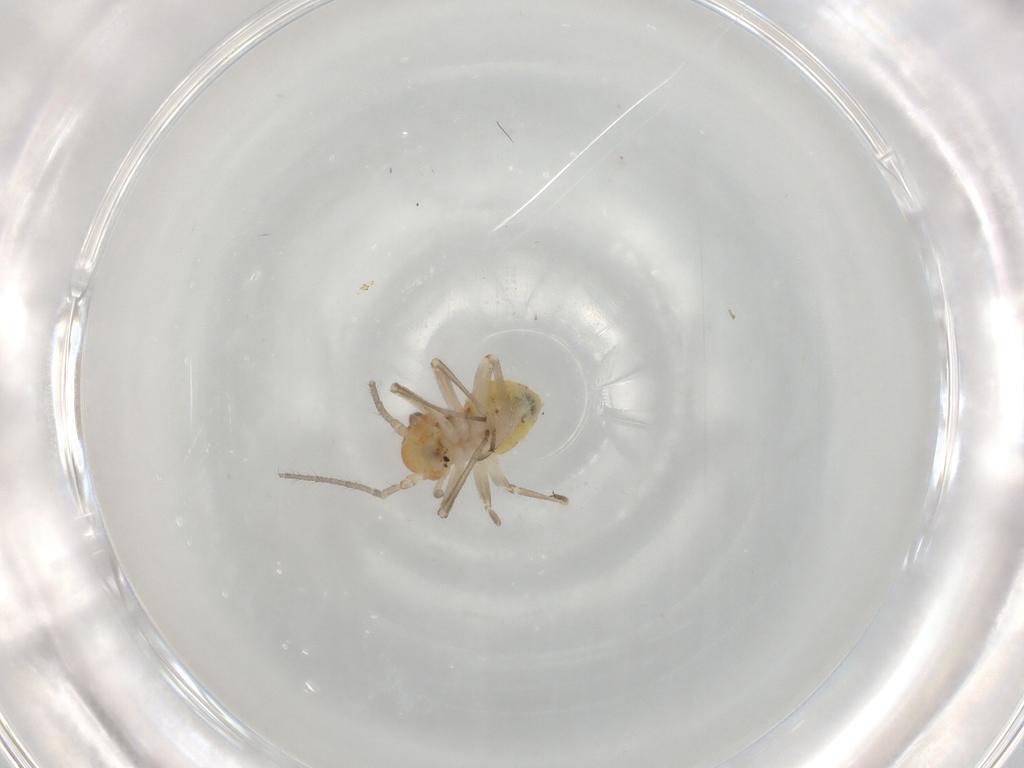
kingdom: Animalia
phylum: Arthropoda
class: Insecta
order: Psocodea
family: Psocidae
